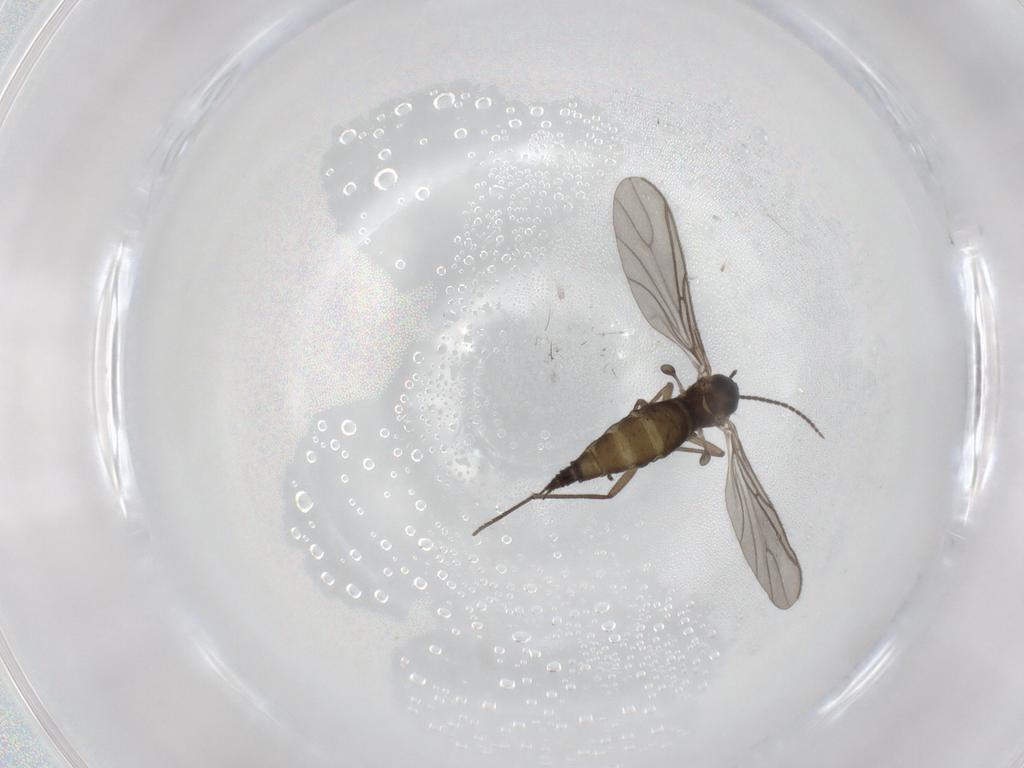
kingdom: Animalia
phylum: Arthropoda
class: Insecta
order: Diptera
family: Sciaridae
